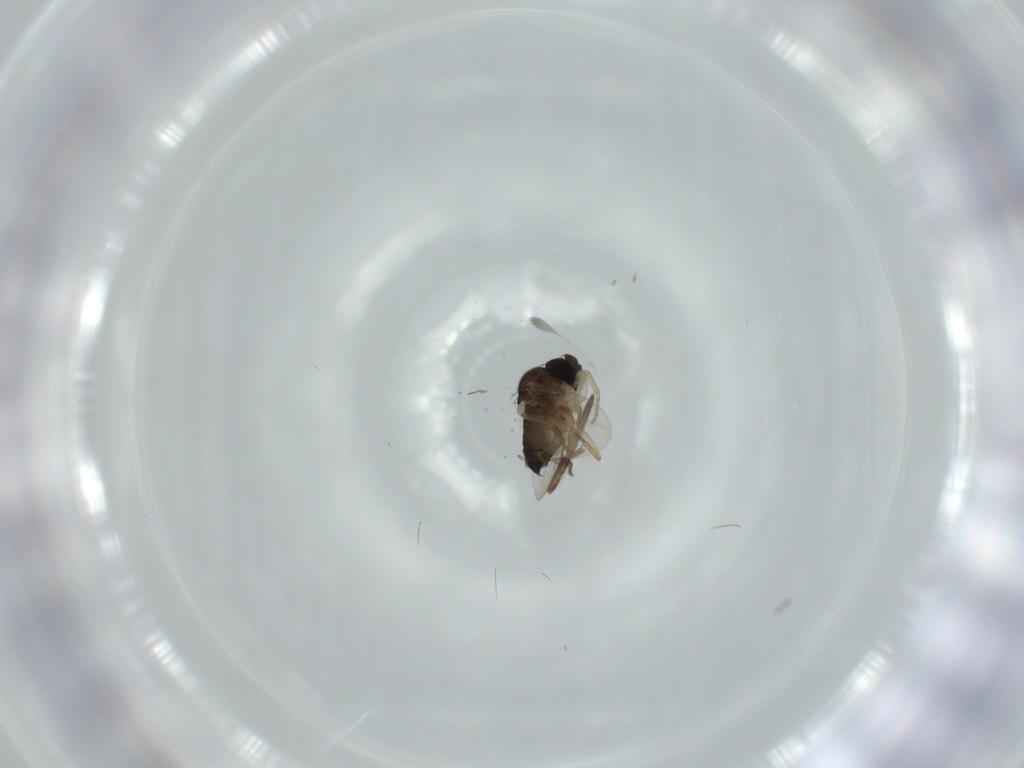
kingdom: Animalia
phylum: Arthropoda
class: Insecta
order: Diptera
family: Phoridae
